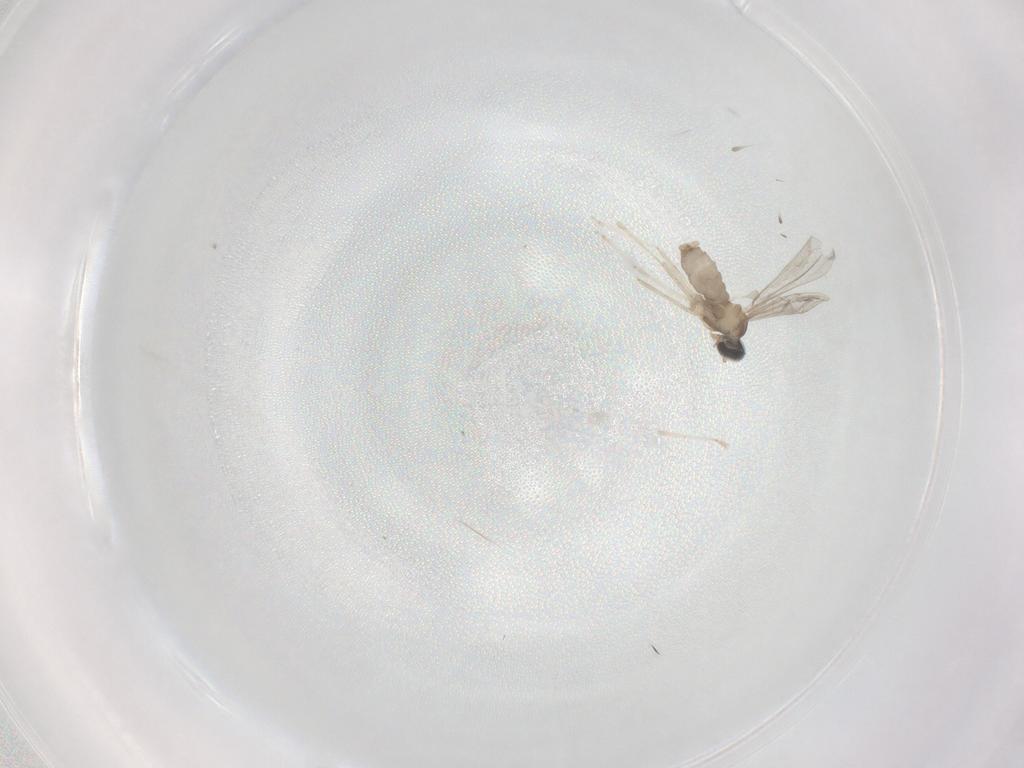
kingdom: Animalia
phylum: Arthropoda
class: Insecta
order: Diptera
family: Cecidomyiidae
